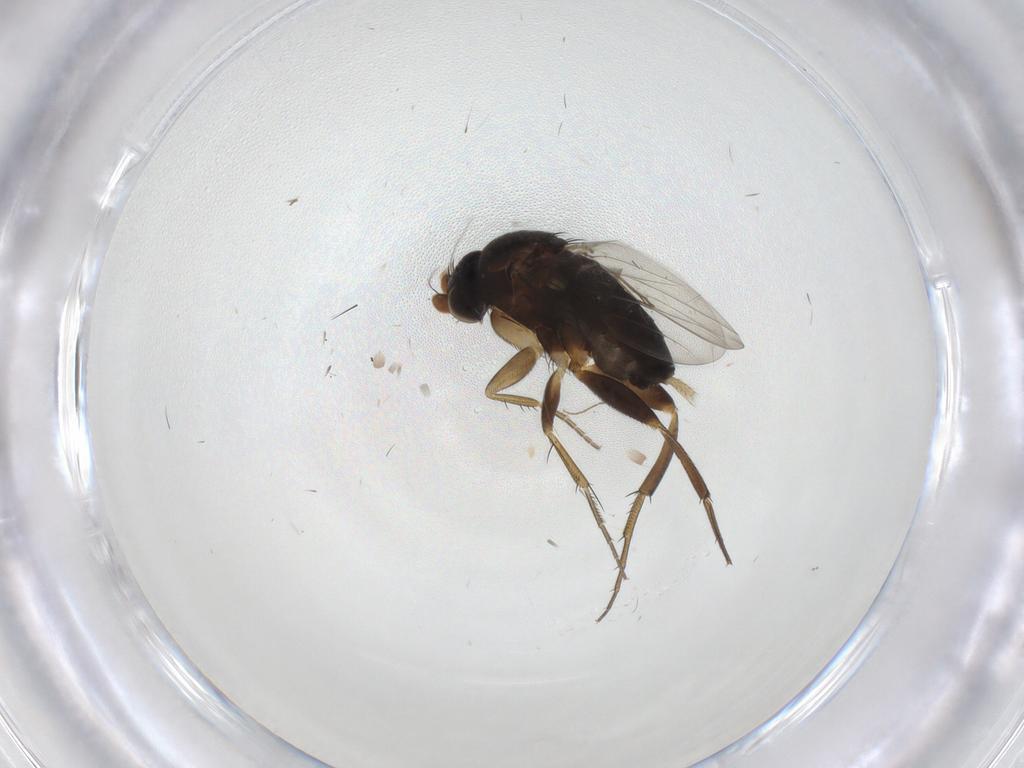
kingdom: Animalia
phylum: Arthropoda
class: Insecta
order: Diptera
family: Phoridae
